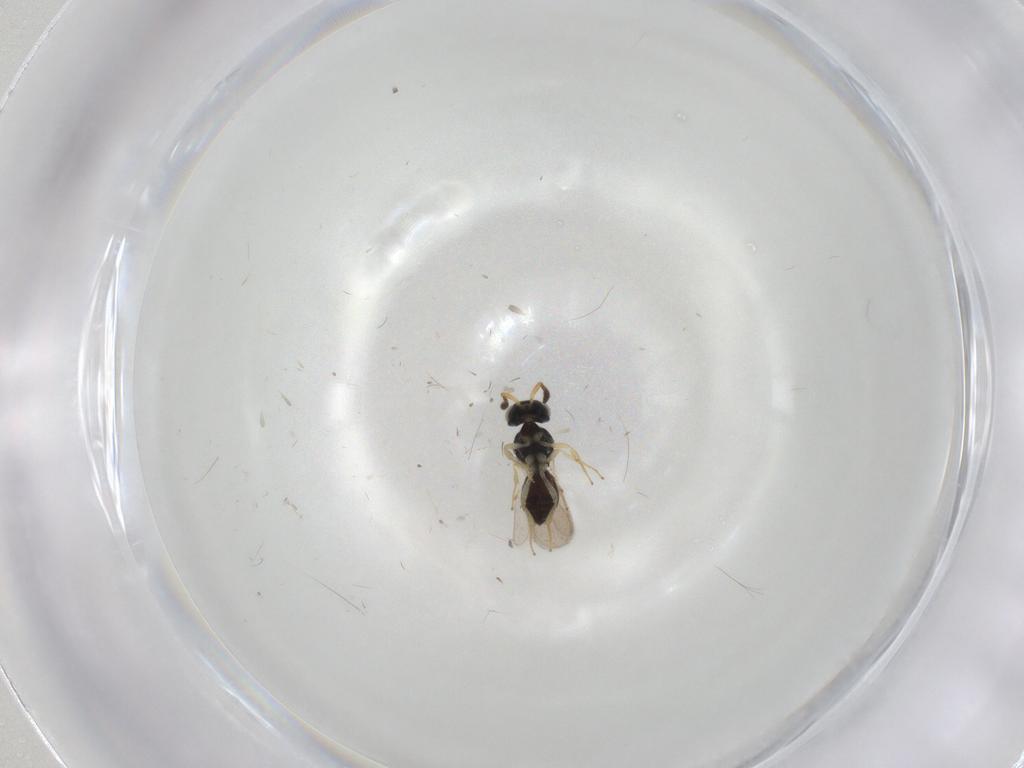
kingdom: Animalia
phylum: Arthropoda
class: Insecta
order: Hymenoptera
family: Scelionidae
